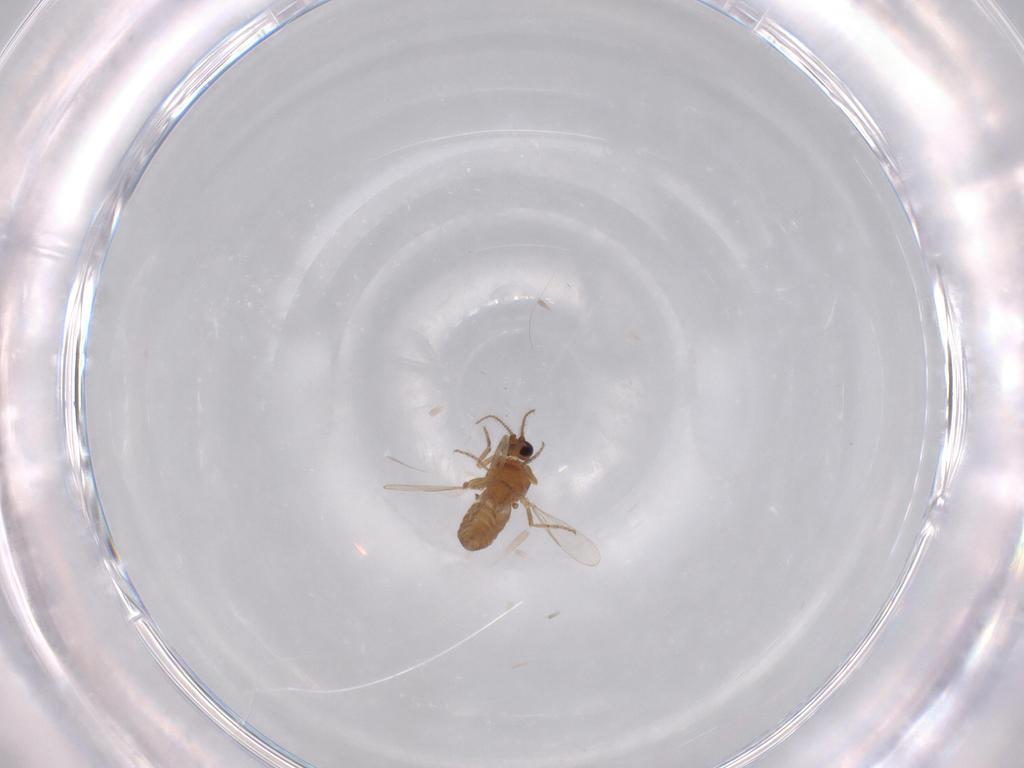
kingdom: Animalia
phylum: Arthropoda
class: Insecta
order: Diptera
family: Ceratopogonidae
